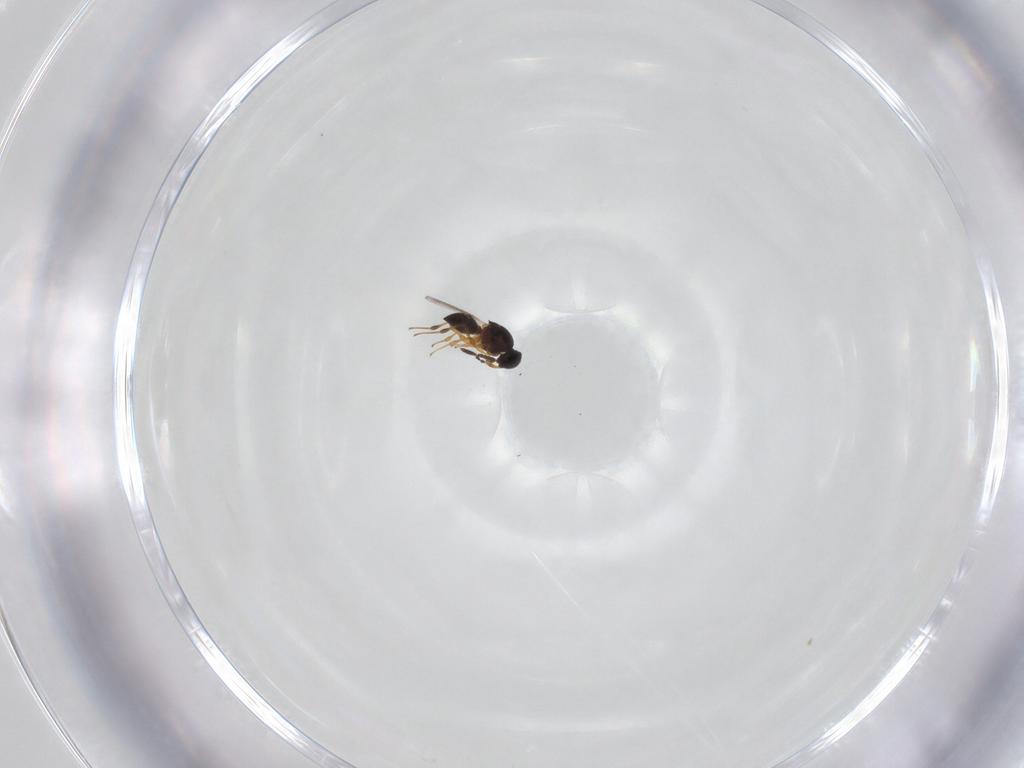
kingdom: Animalia
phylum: Arthropoda
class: Insecta
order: Hymenoptera
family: Platygastridae
